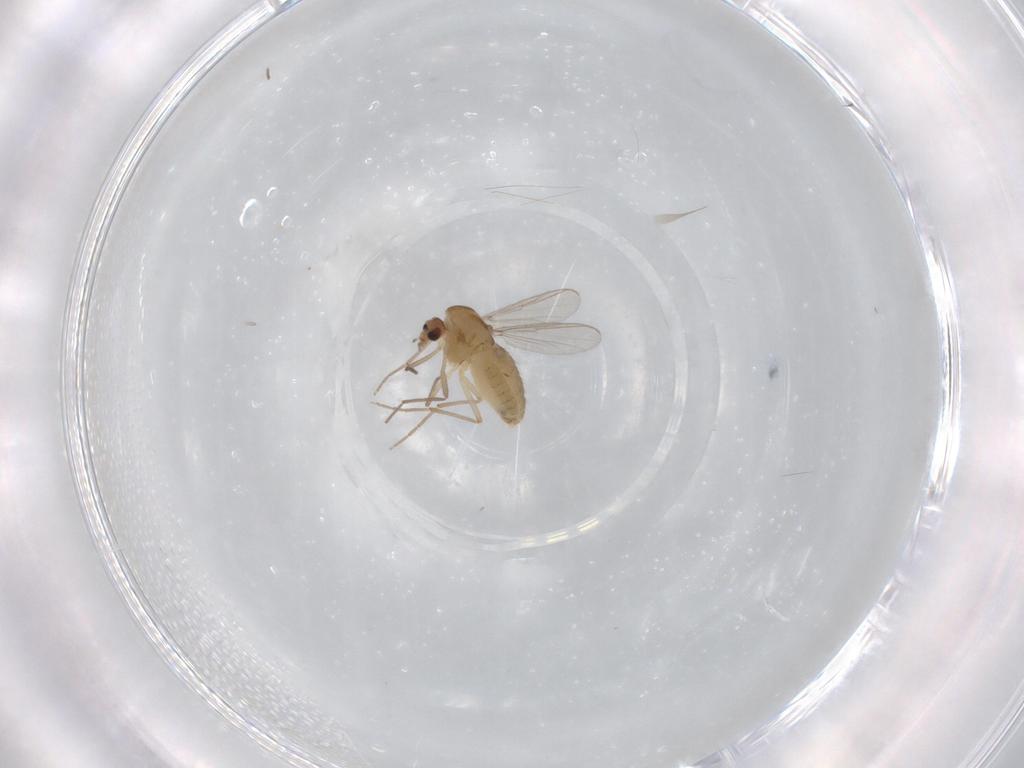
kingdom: Animalia
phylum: Arthropoda
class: Insecta
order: Diptera
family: Chironomidae
